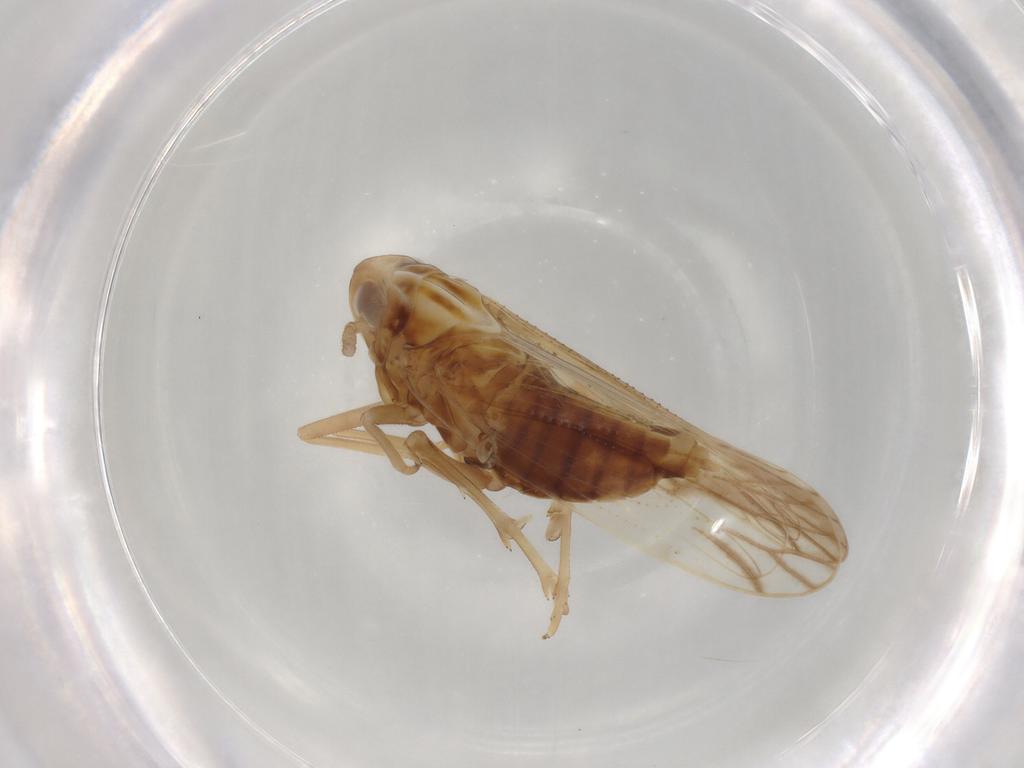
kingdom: Animalia
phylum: Arthropoda
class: Insecta
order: Hemiptera
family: Delphacidae
